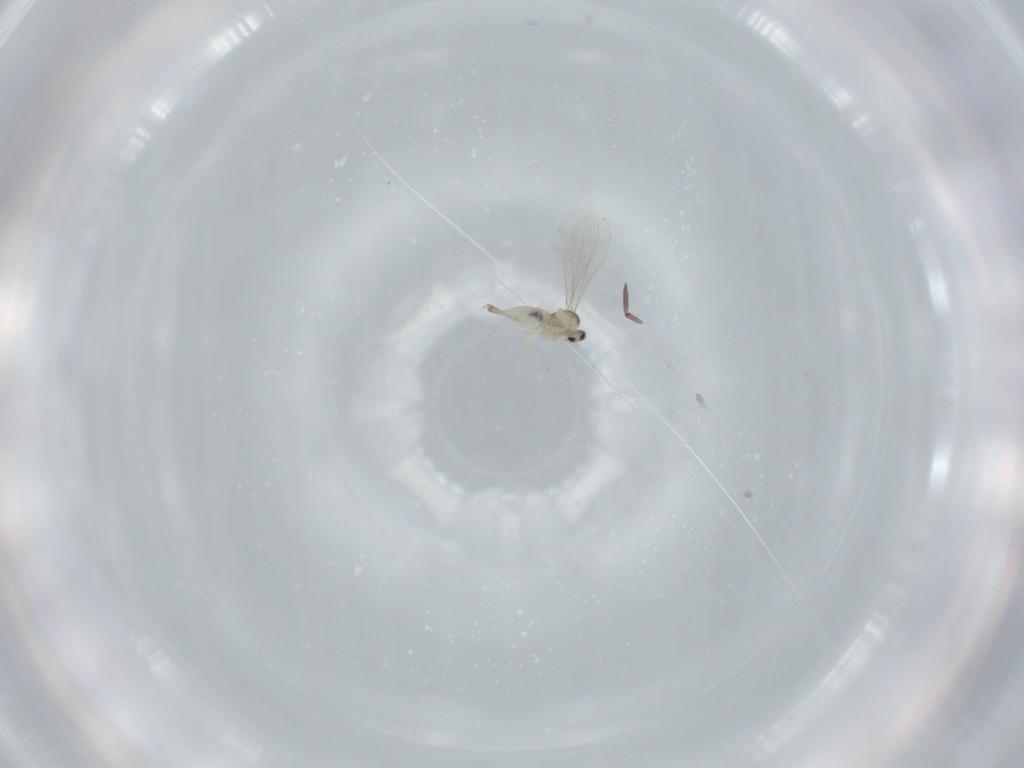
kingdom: Animalia
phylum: Arthropoda
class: Insecta
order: Diptera
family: Cecidomyiidae
